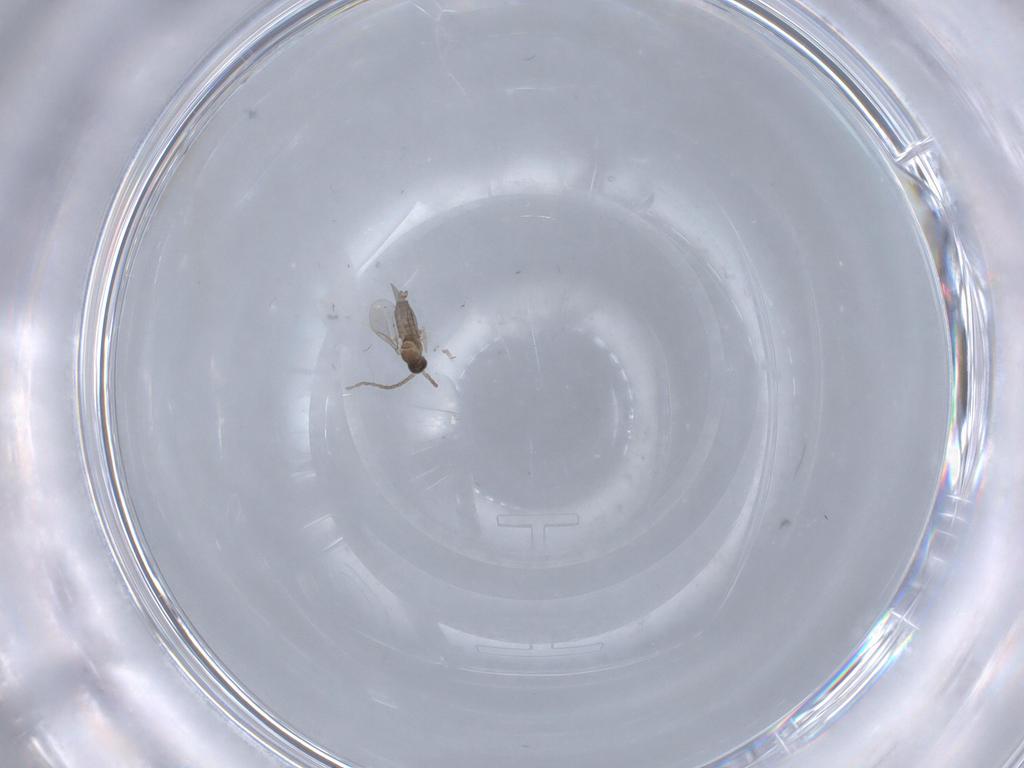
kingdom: Animalia
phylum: Arthropoda
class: Insecta
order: Diptera
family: Cecidomyiidae
